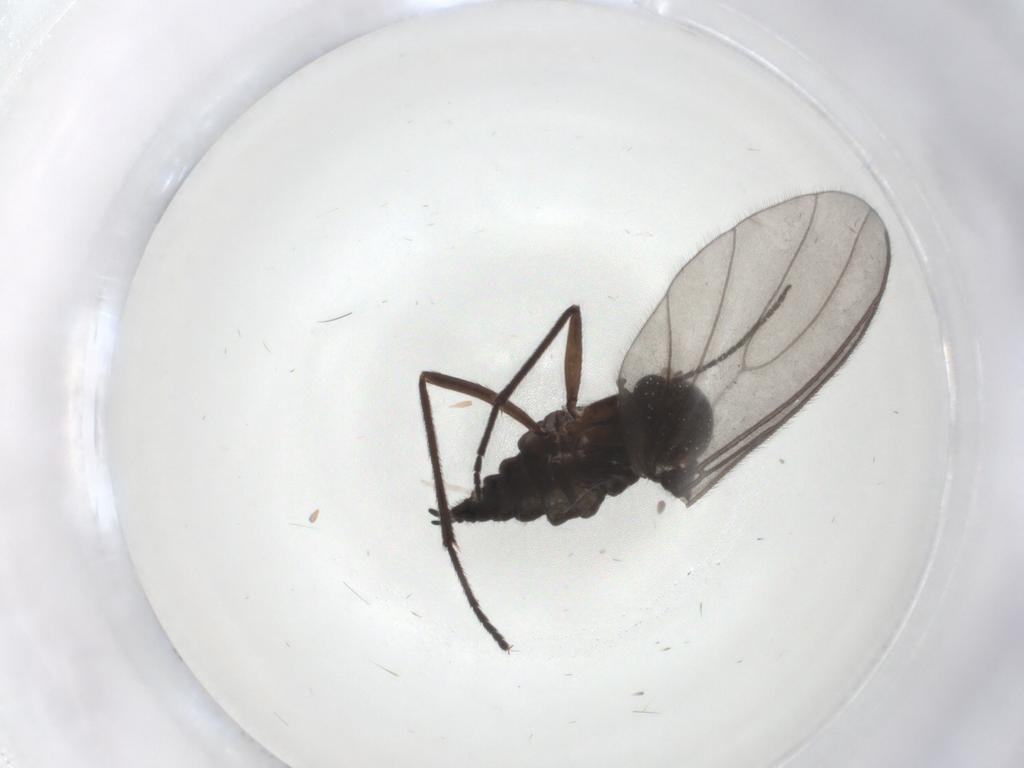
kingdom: Animalia
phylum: Arthropoda
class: Insecta
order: Diptera
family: Sciaridae
